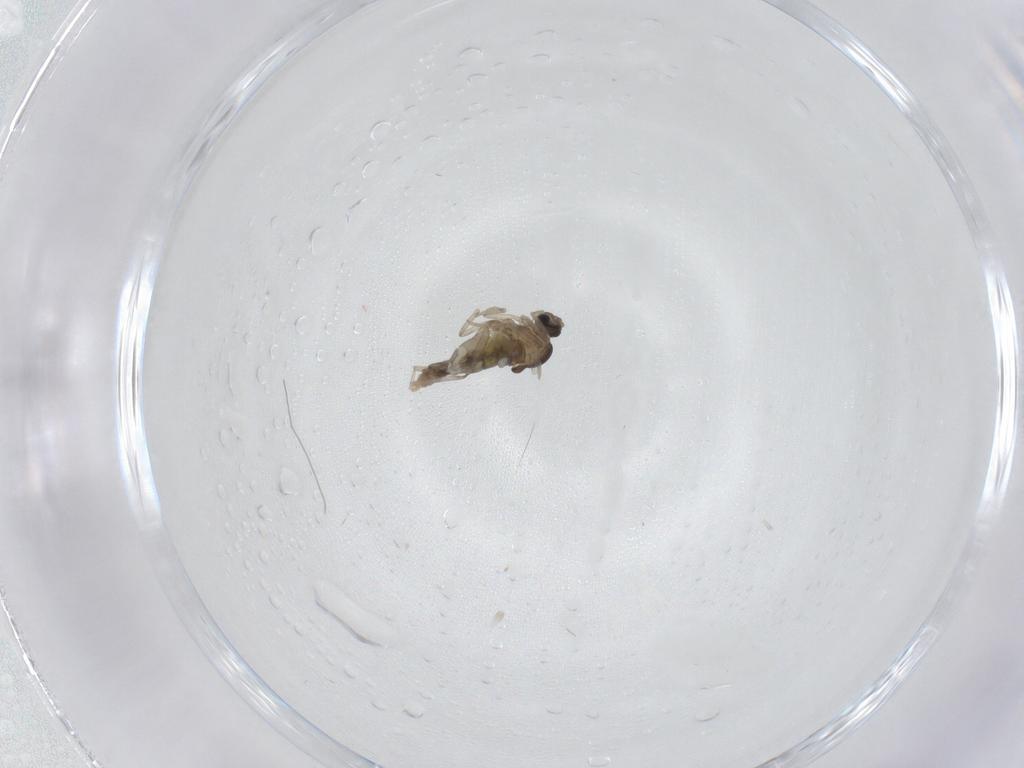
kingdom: Animalia
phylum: Arthropoda
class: Insecta
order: Diptera
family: Cecidomyiidae
